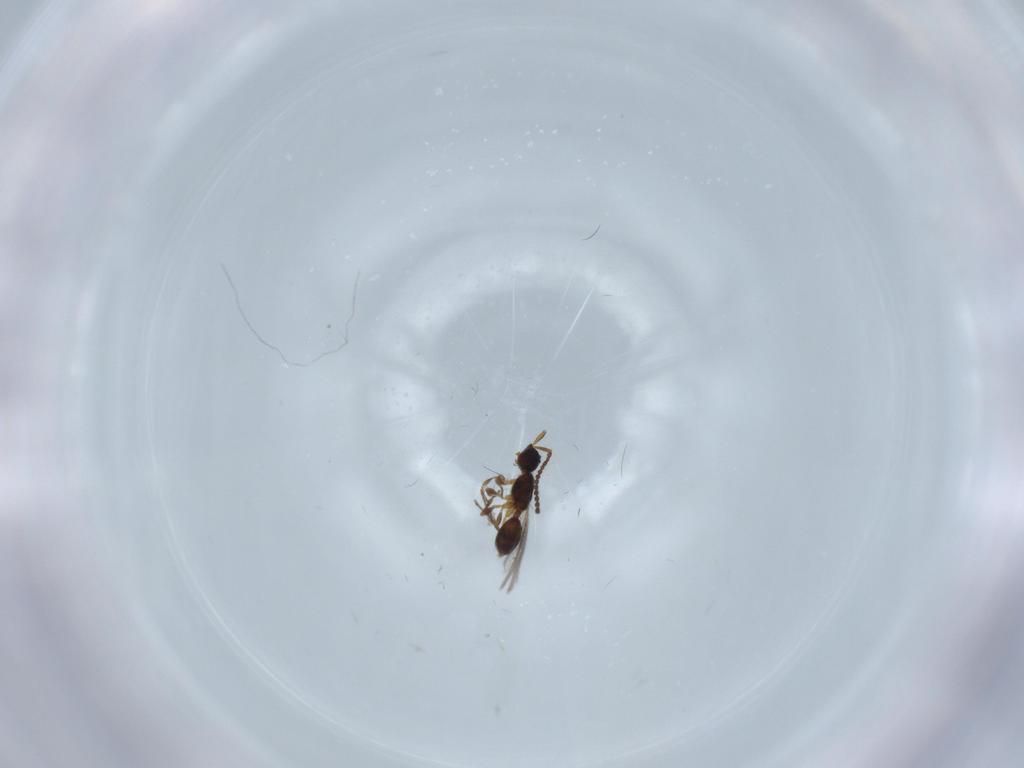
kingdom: Animalia
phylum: Arthropoda
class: Insecta
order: Hymenoptera
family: Diapriidae
